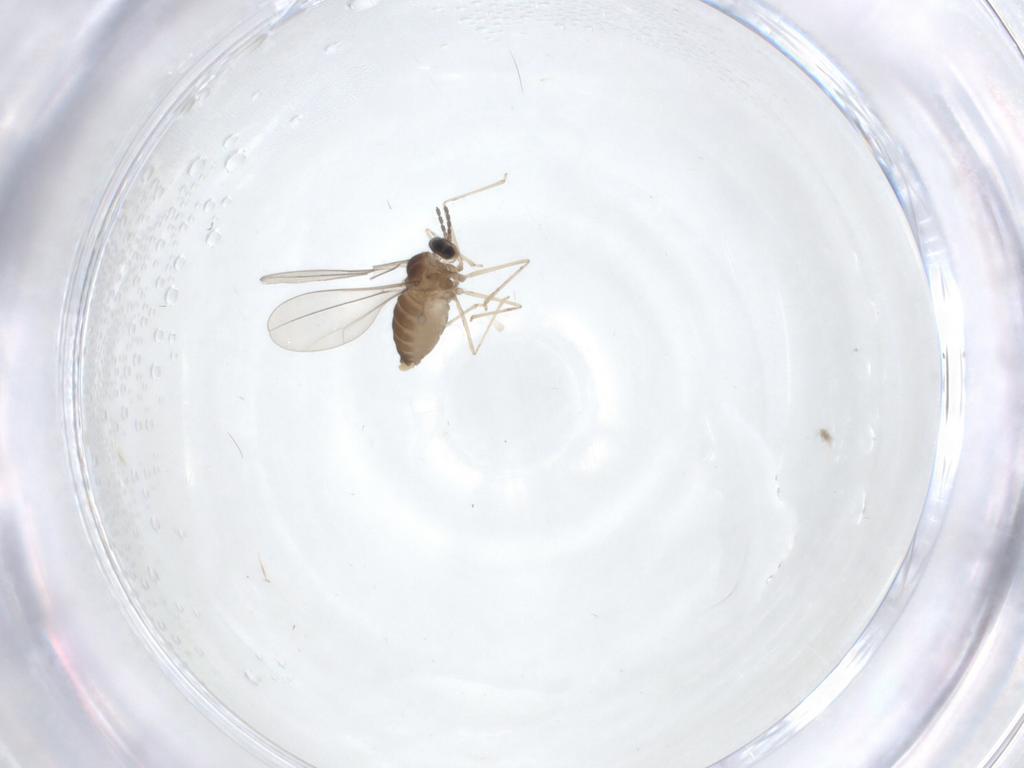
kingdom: Animalia
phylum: Arthropoda
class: Insecta
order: Diptera
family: Cecidomyiidae
